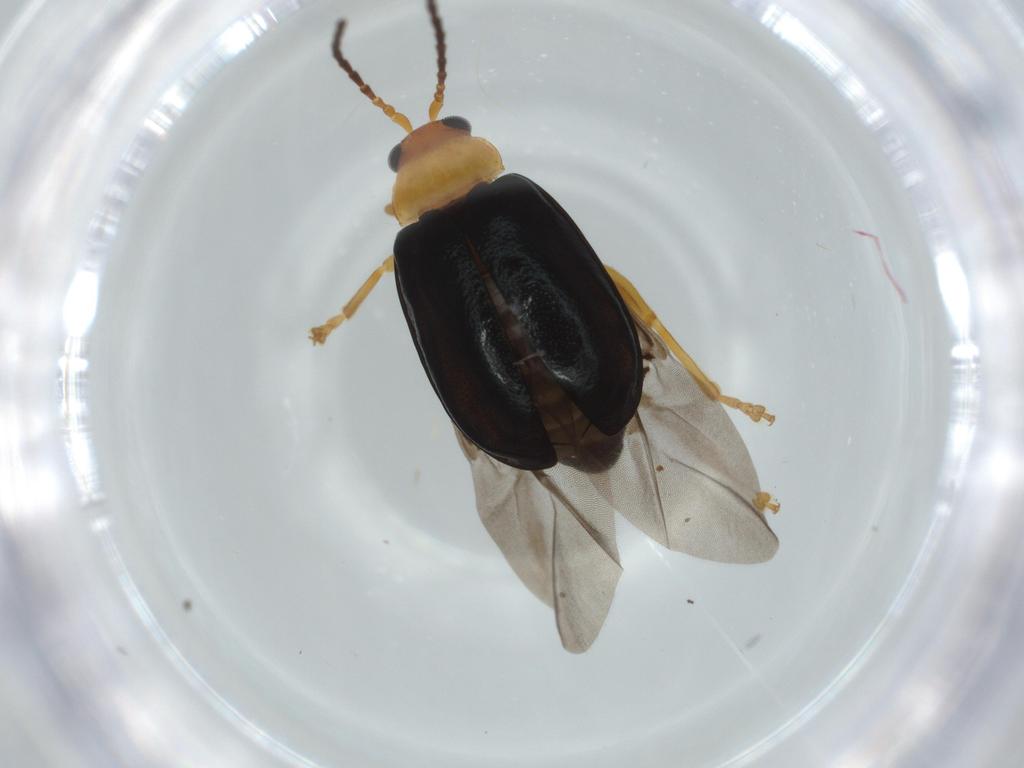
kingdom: Animalia
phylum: Arthropoda
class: Insecta
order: Coleoptera
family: Chrysomelidae
